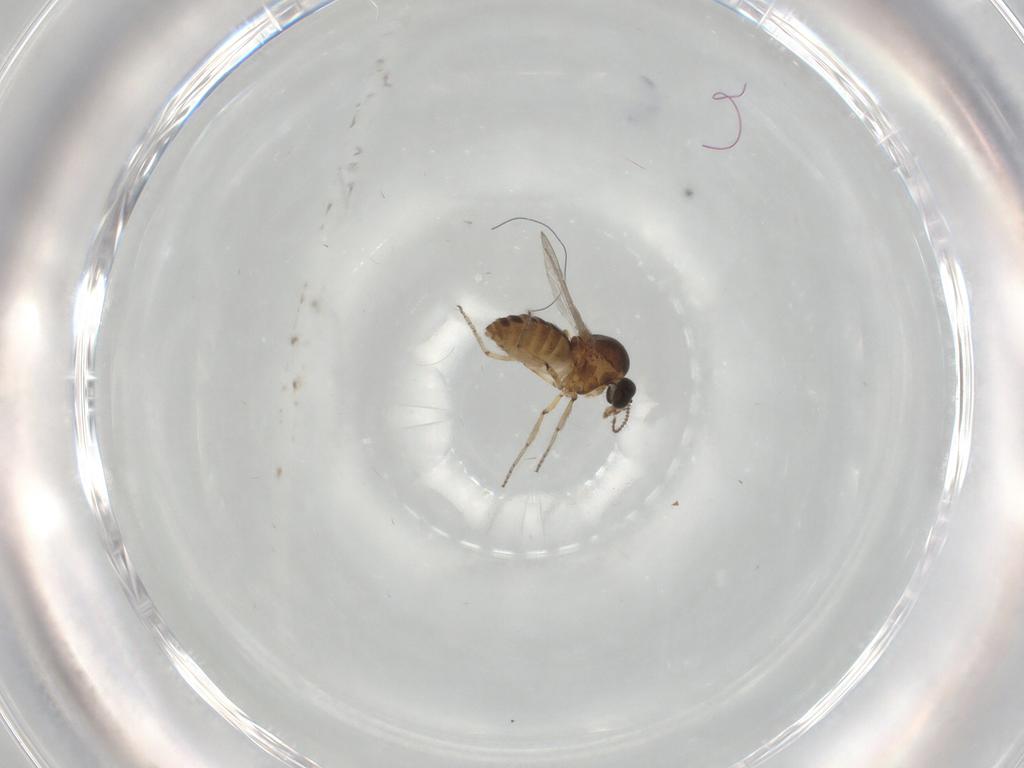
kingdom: Animalia
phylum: Arthropoda
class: Insecta
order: Diptera
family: Ceratopogonidae
